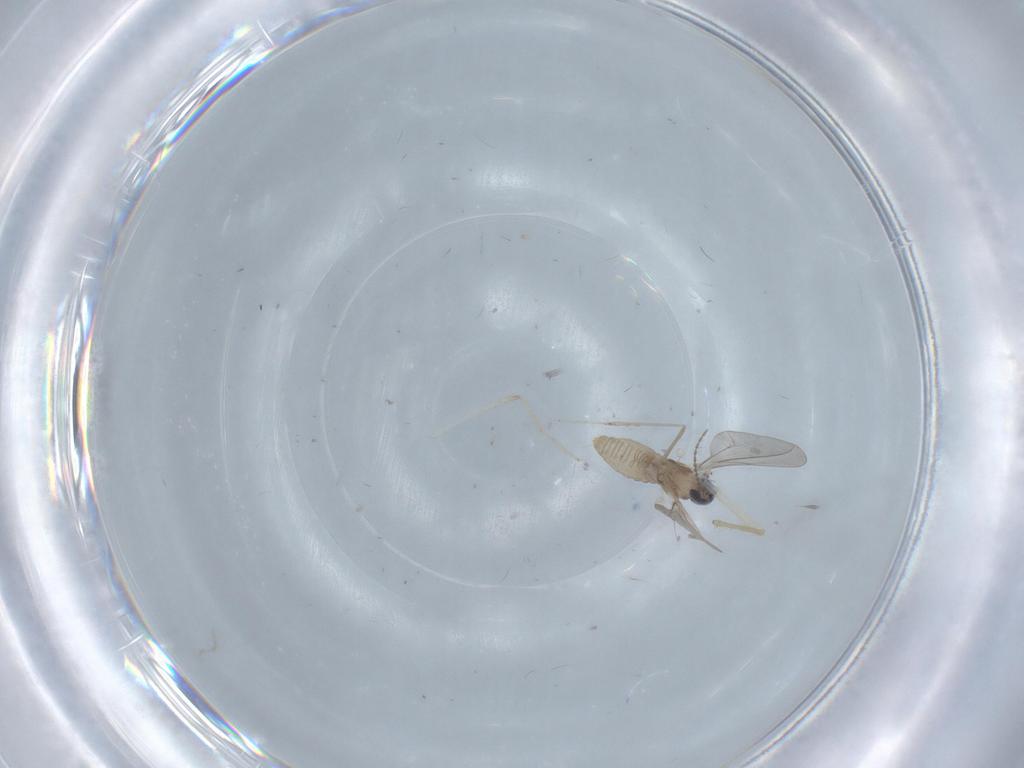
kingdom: Animalia
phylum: Arthropoda
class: Insecta
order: Diptera
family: Cecidomyiidae
